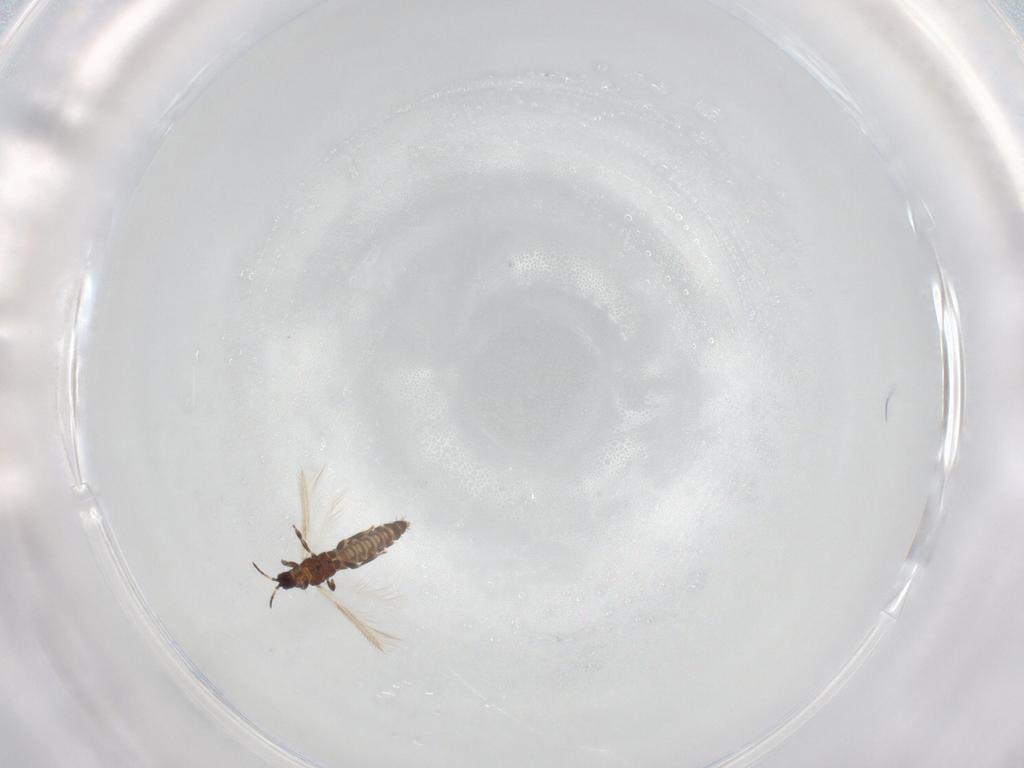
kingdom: Animalia
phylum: Arthropoda
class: Insecta
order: Thysanoptera
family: Thripidae
